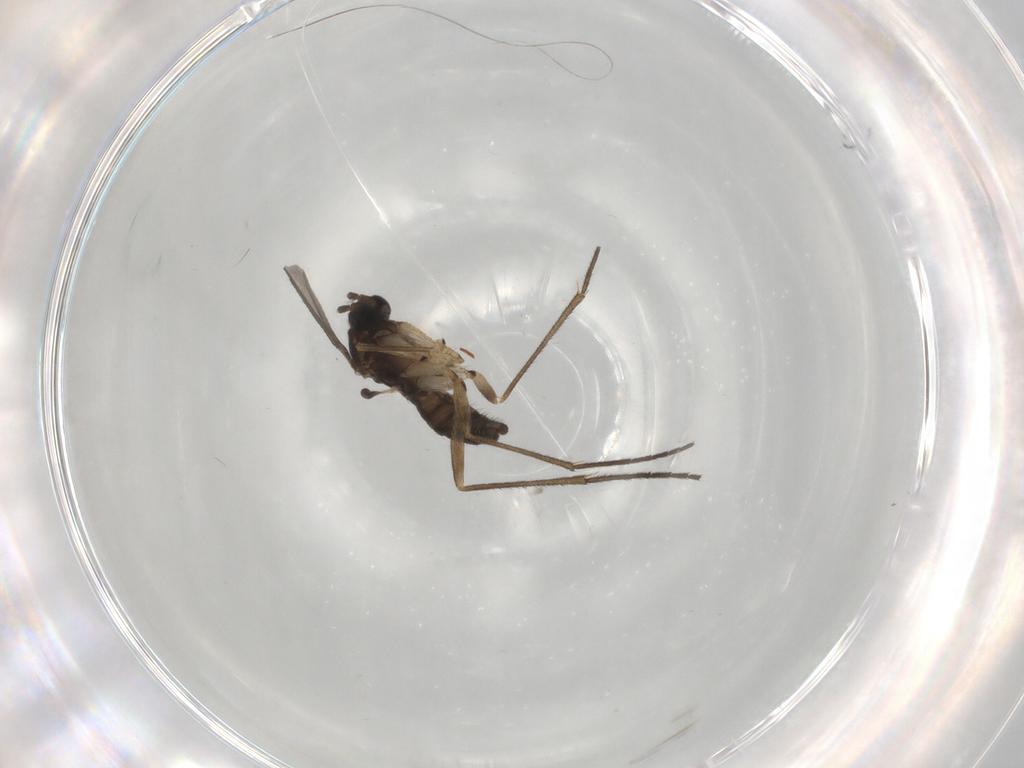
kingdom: Animalia
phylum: Arthropoda
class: Insecta
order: Diptera
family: Sciaridae
